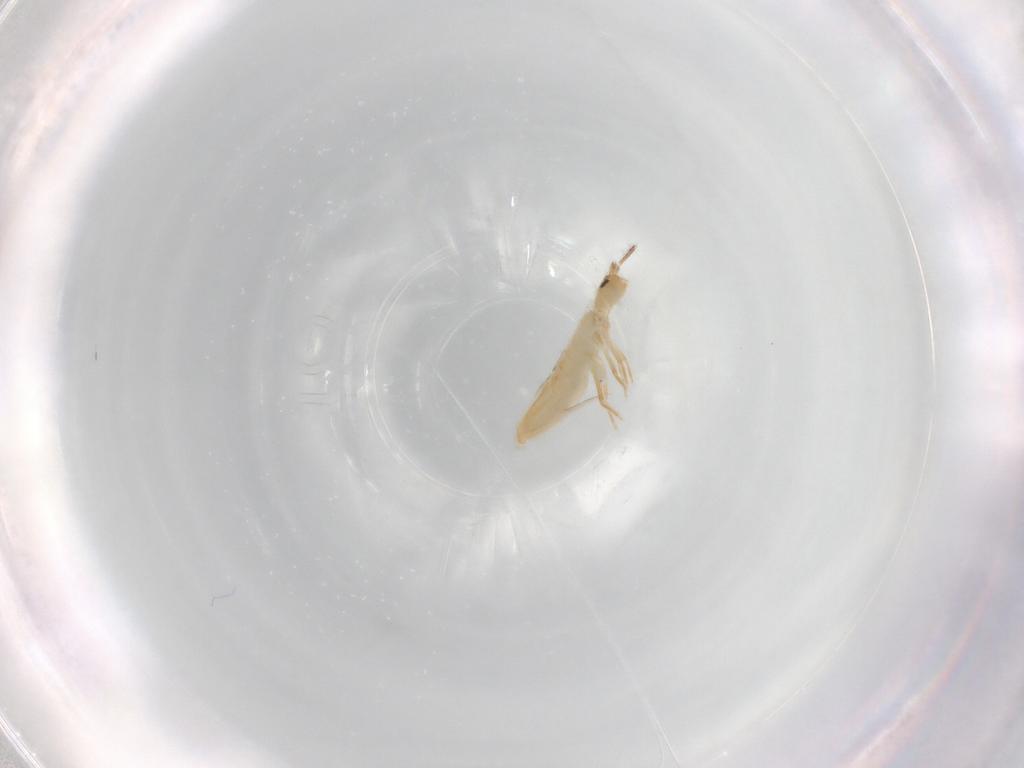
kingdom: Animalia
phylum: Arthropoda
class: Collembola
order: Entomobryomorpha
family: Entomobryidae
